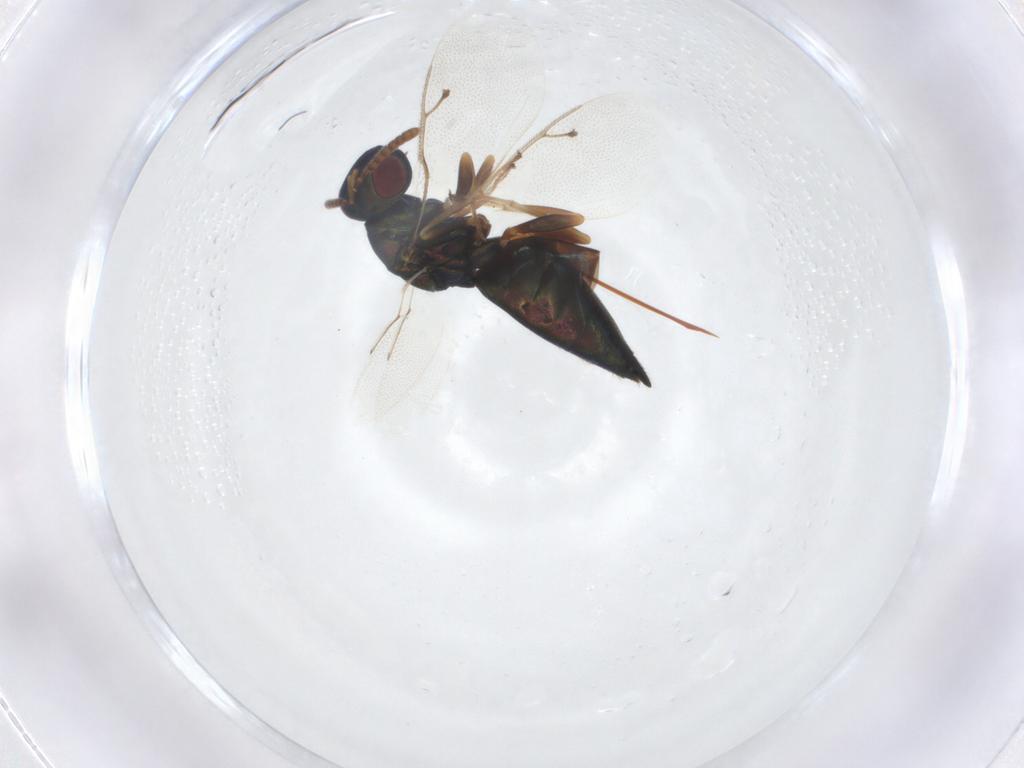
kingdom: Animalia
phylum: Arthropoda
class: Insecta
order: Hymenoptera
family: Pteromalidae
